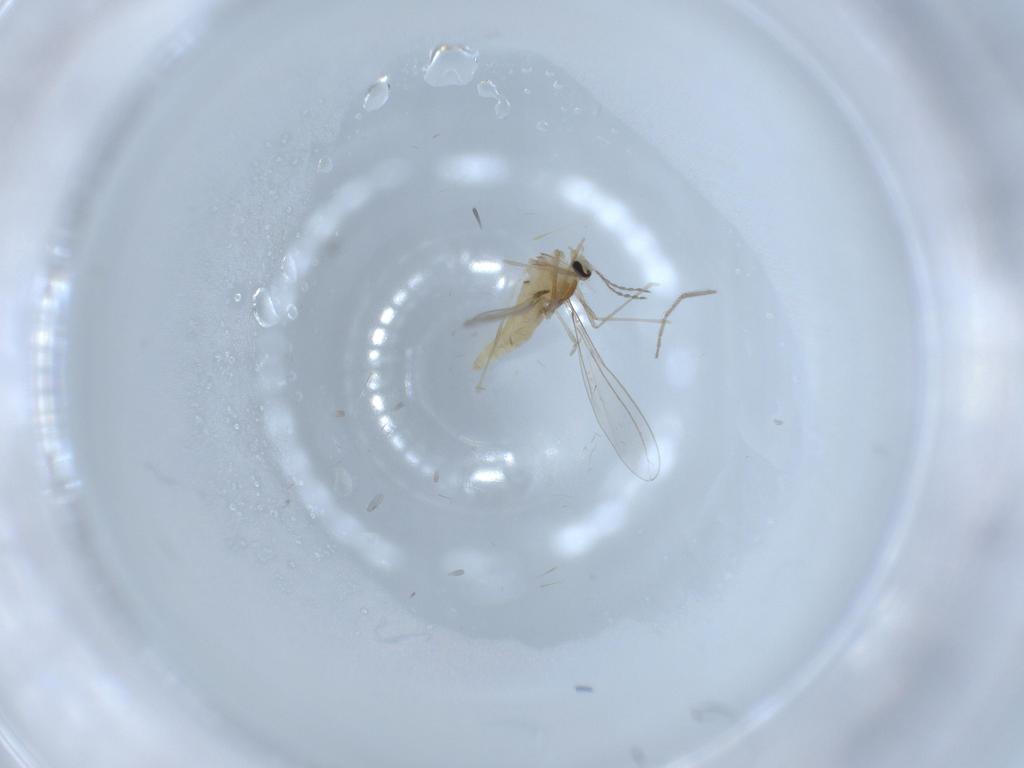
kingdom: Animalia
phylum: Arthropoda
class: Insecta
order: Diptera
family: Cecidomyiidae
